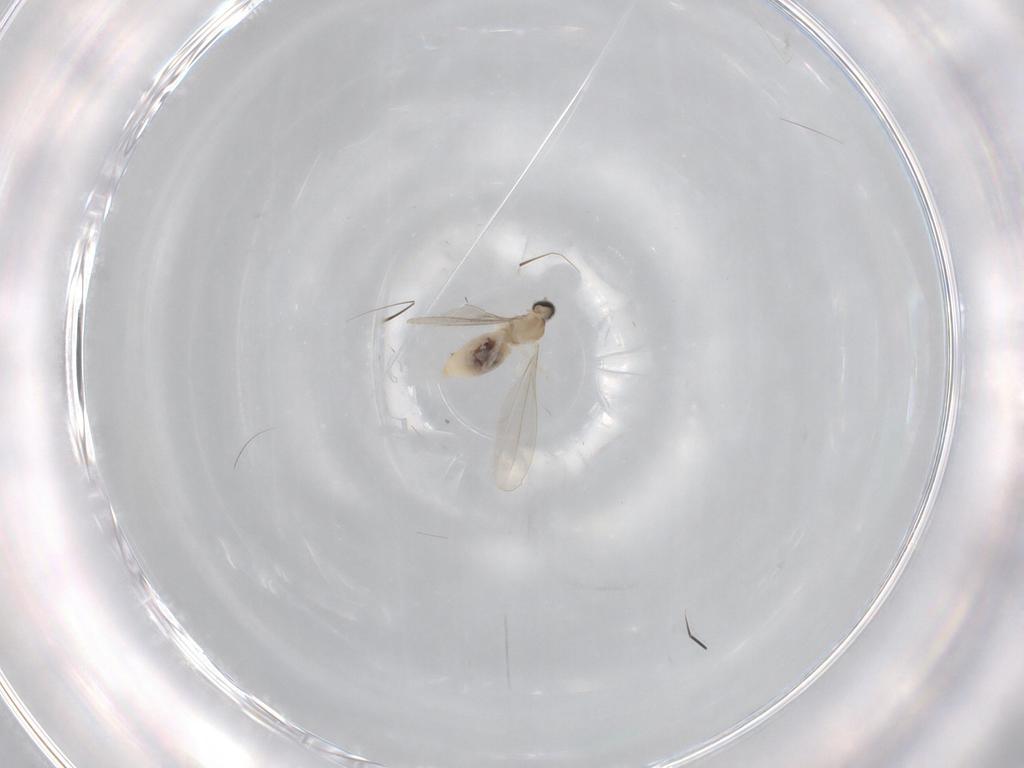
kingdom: Animalia
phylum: Arthropoda
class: Insecta
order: Diptera
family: Cecidomyiidae
